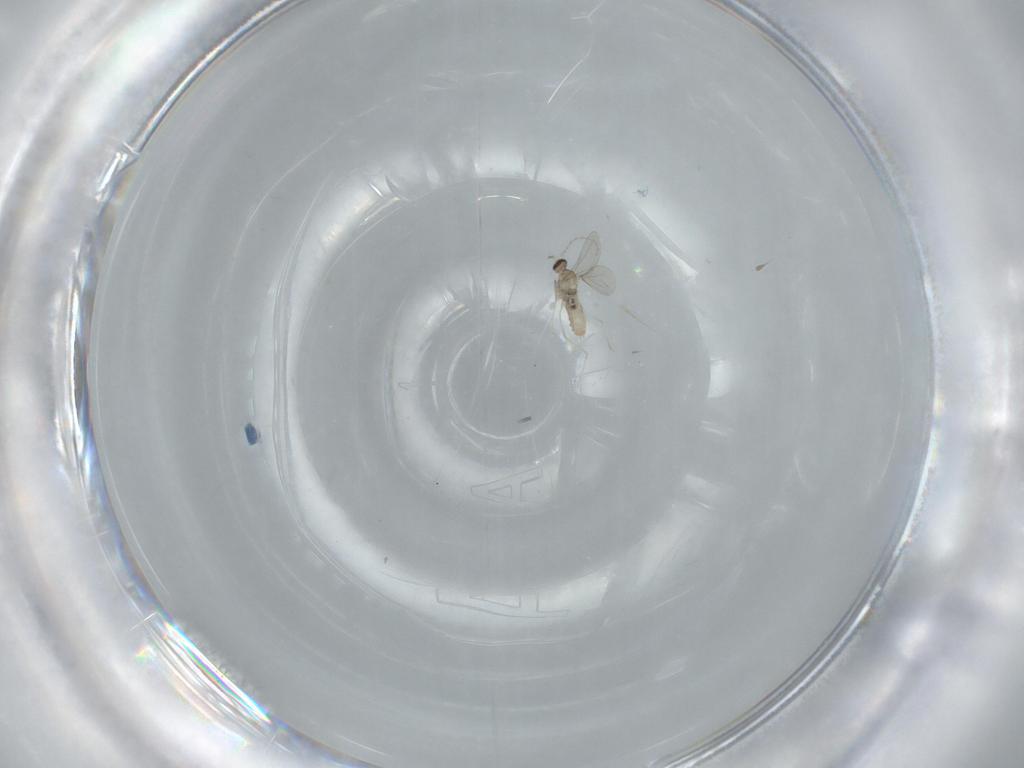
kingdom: Animalia
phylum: Arthropoda
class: Insecta
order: Diptera
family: Cecidomyiidae
